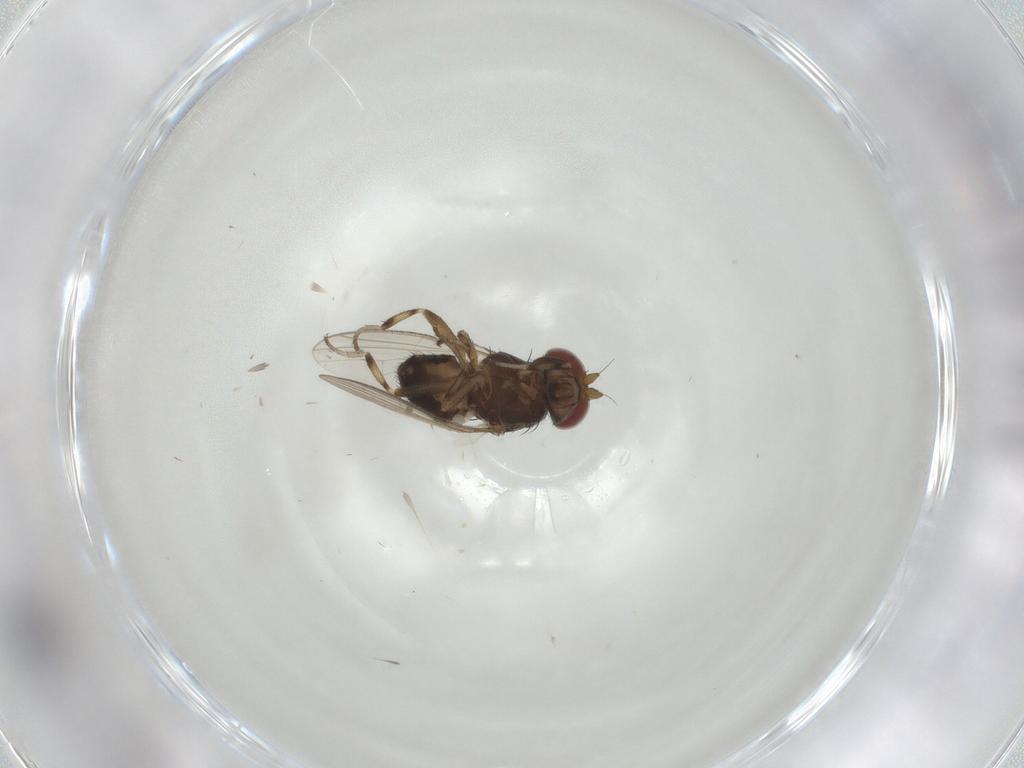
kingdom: Animalia
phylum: Arthropoda
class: Insecta
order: Diptera
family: Heleomyzidae
